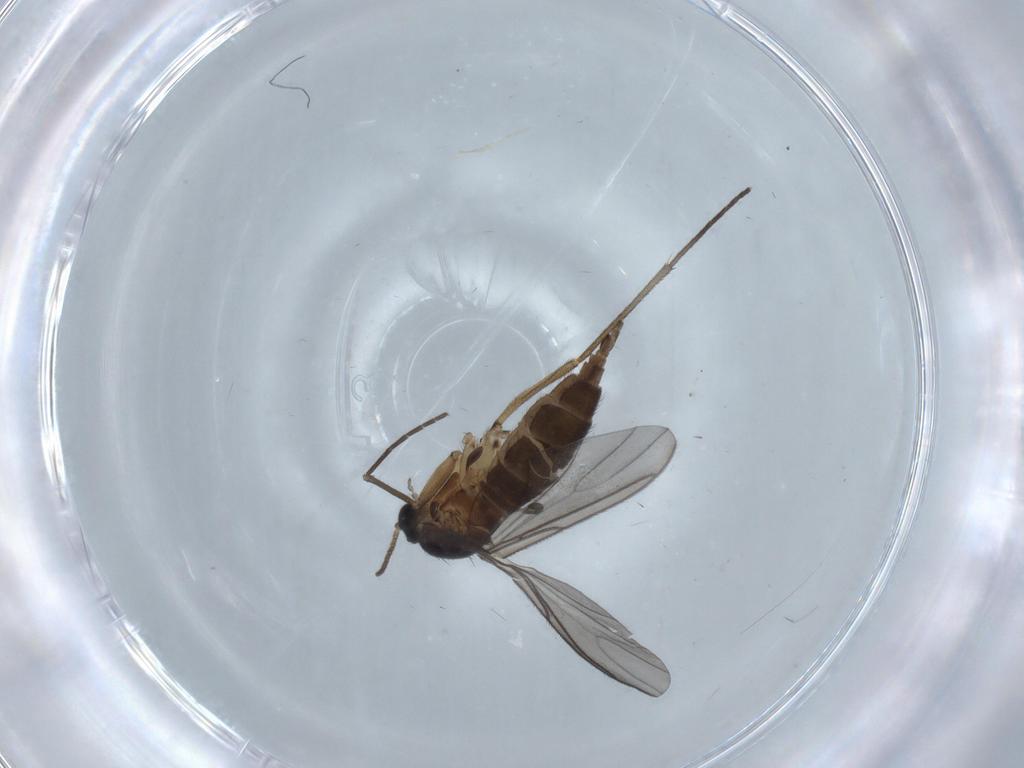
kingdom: Animalia
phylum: Arthropoda
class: Insecta
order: Diptera
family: Sciaridae
